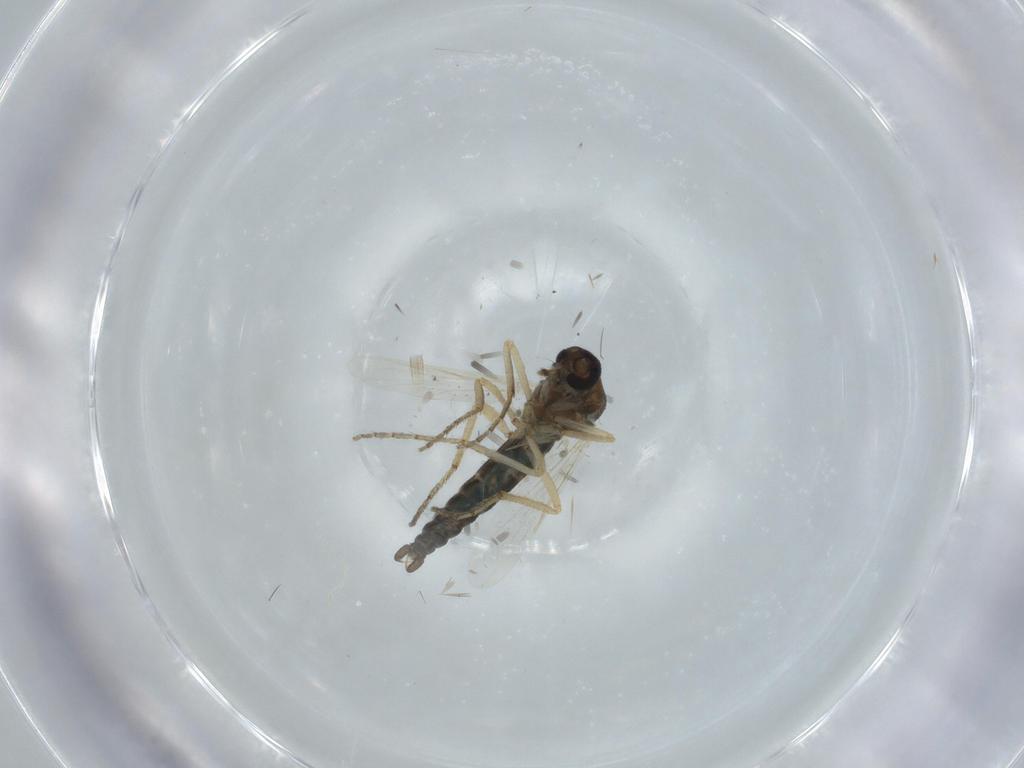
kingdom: Animalia
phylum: Arthropoda
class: Insecta
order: Diptera
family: Ceratopogonidae
